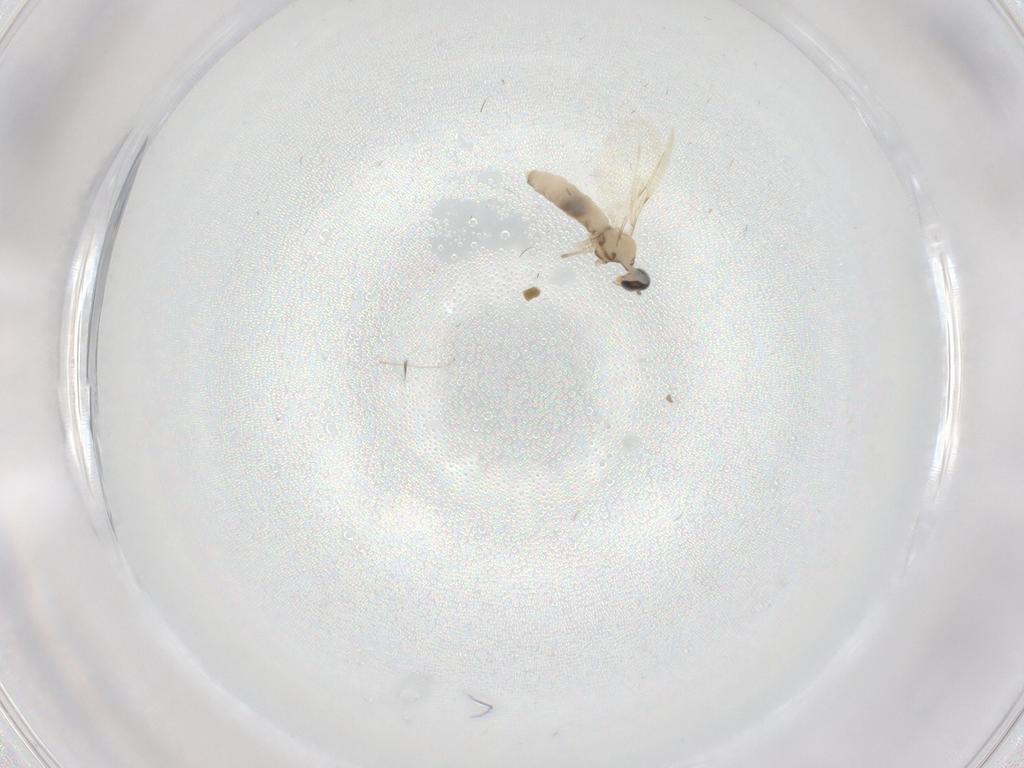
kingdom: Animalia
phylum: Arthropoda
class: Insecta
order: Diptera
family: Cecidomyiidae
